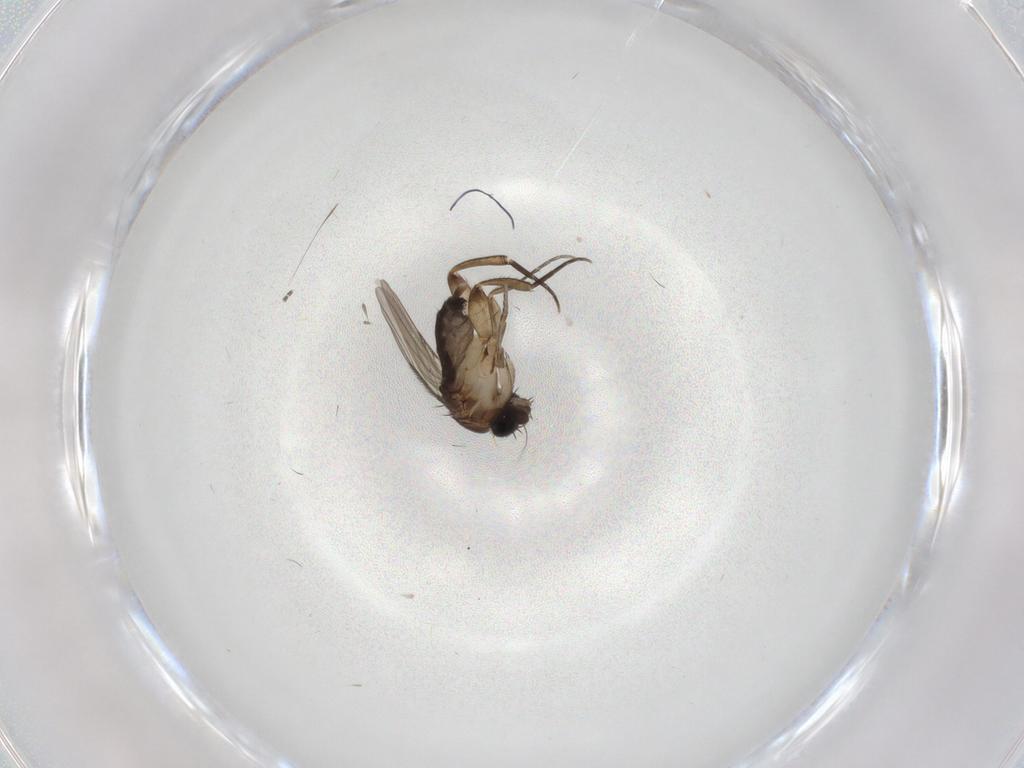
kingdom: Animalia
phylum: Arthropoda
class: Insecta
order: Diptera
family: Phoridae
